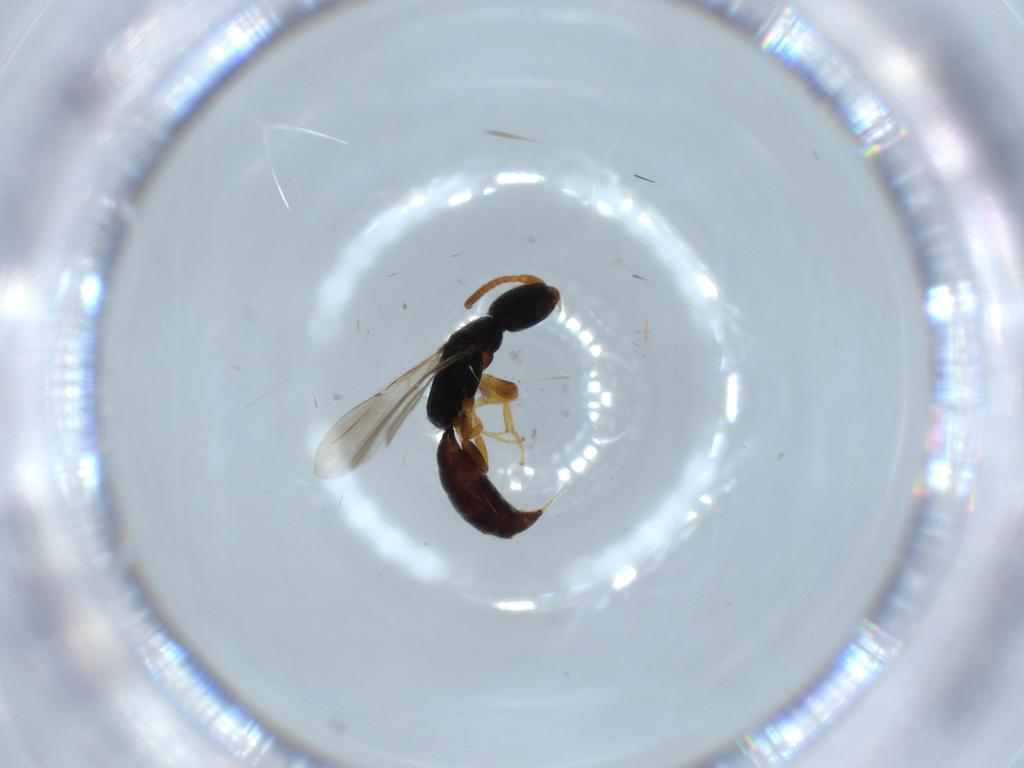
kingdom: Animalia
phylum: Arthropoda
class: Insecta
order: Hymenoptera
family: Bethylidae
